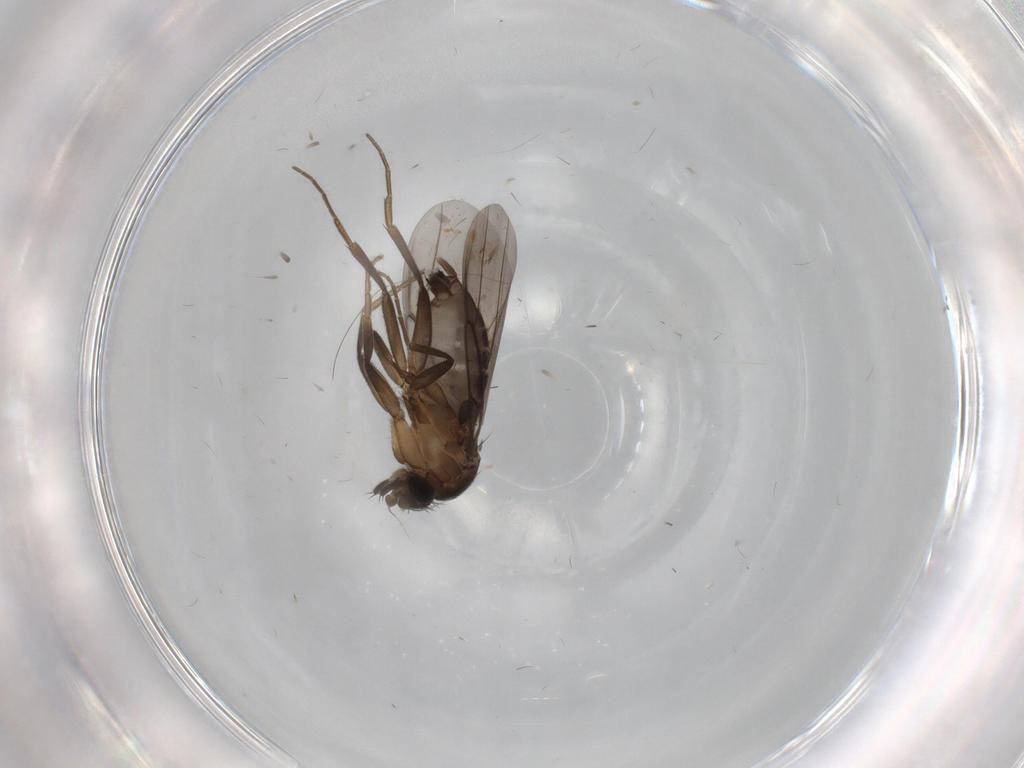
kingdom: Animalia
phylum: Arthropoda
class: Insecta
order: Diptera
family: Phoridae
